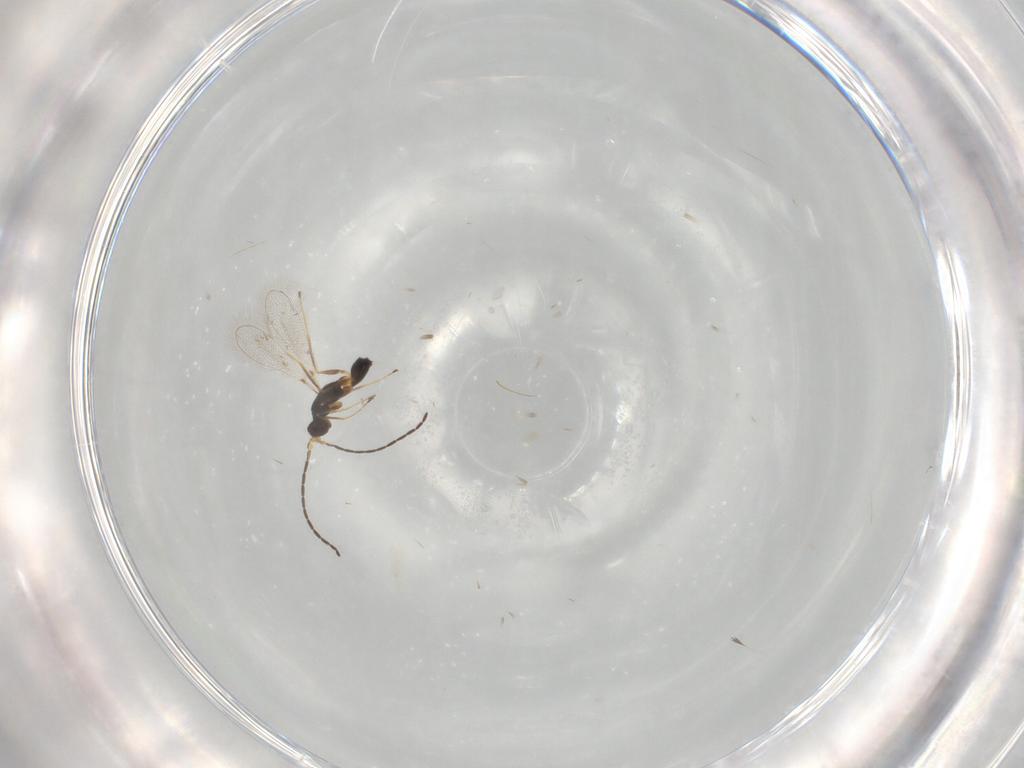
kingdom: Animalia
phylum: Arthropoda
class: Insecta
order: Hymenoptera
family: Mymaridae
